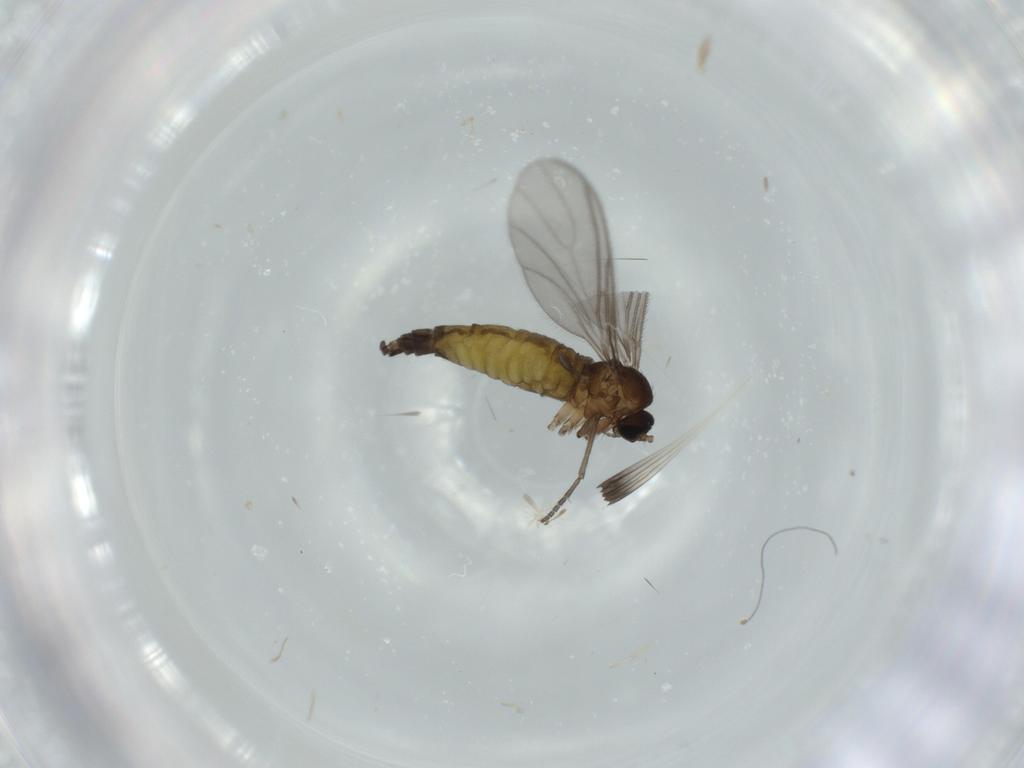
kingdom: Animalia
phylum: Arthropoda
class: Insecta
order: Diptera
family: Sciaridae
